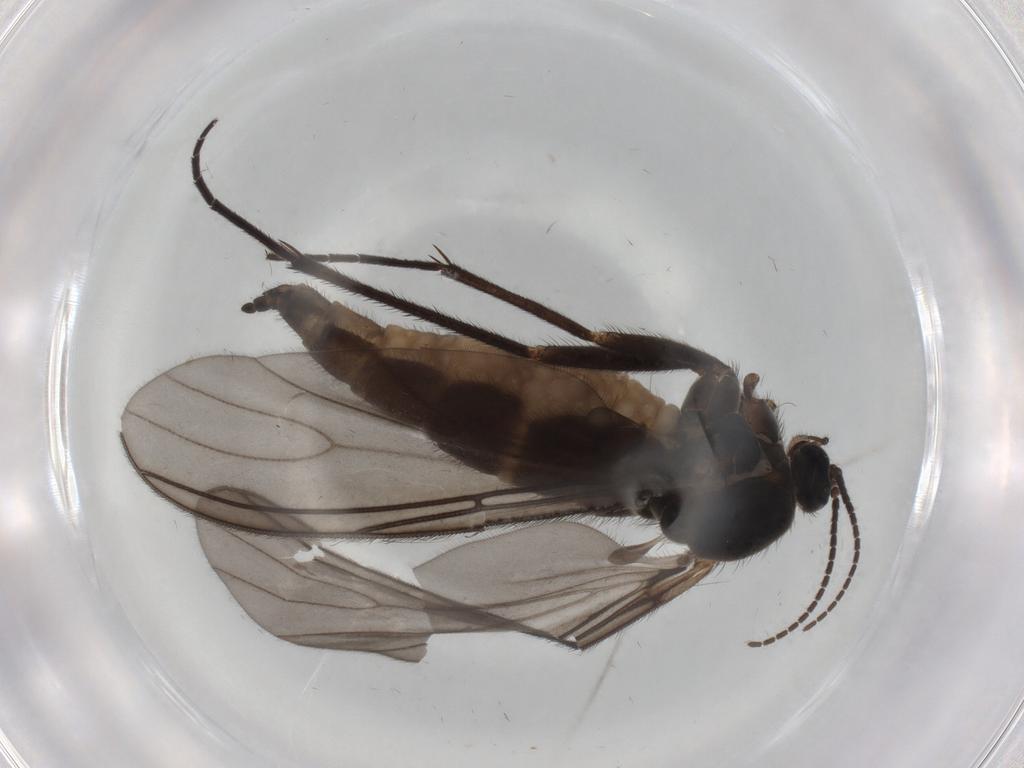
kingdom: Animalia
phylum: Arthropoda
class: Insecta
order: Diptera
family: Sciaridae
